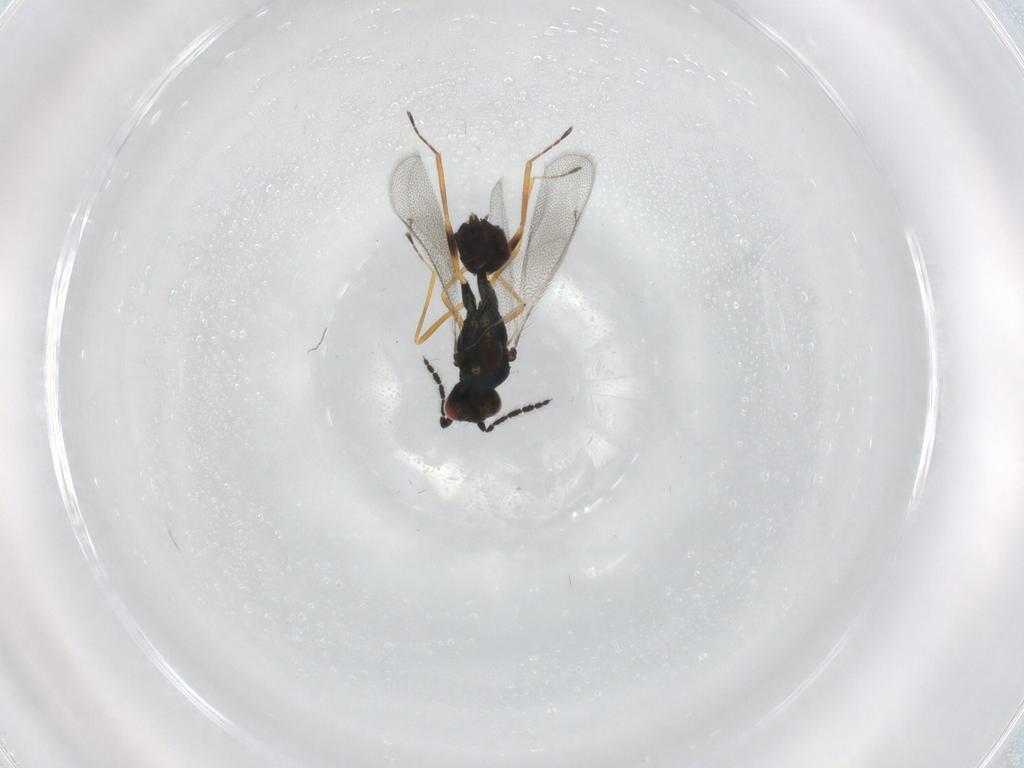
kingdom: Animalia
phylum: Arthropoda
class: Insecta
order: Hymenoptera
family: Eulophidae
